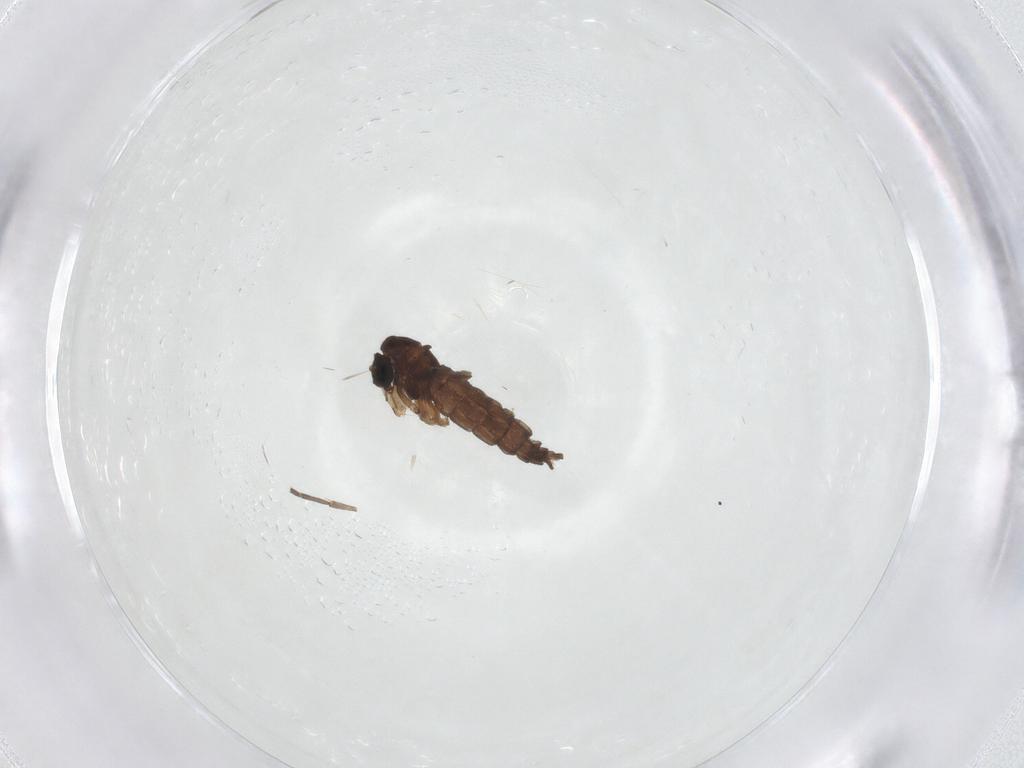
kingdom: Animalia
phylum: Arthropoda
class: Insecta
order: Diptera
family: Sciaridae
